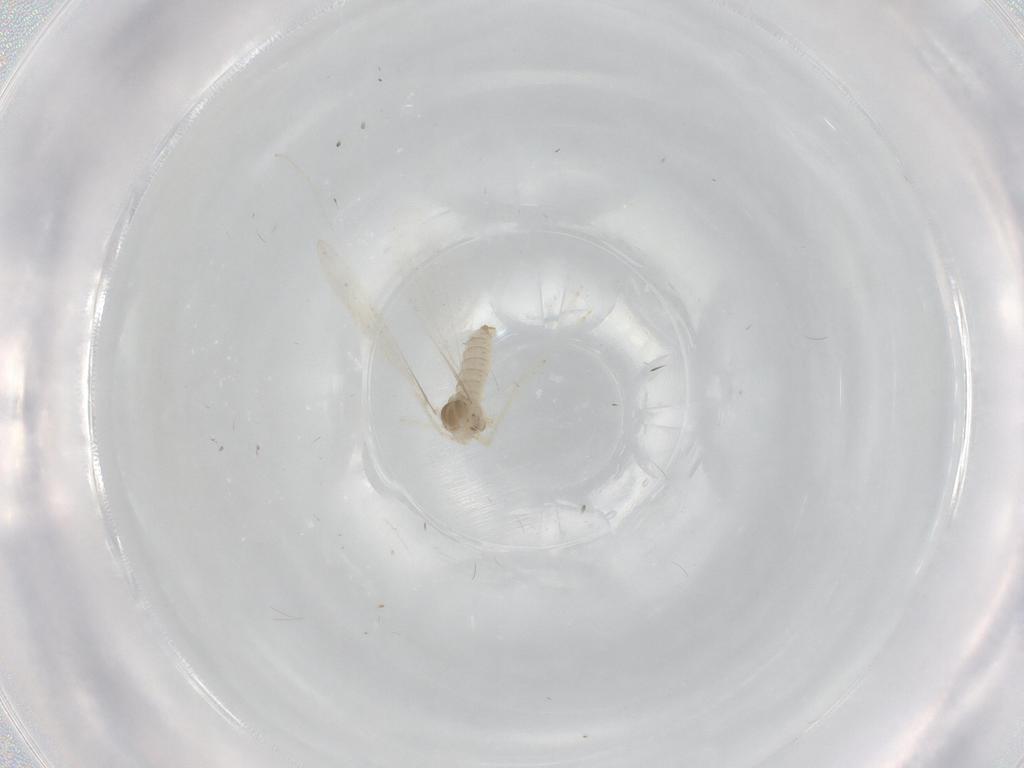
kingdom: Animalia
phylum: Arthropoda
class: Insecta
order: Diptera
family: Cecidomyiidae
